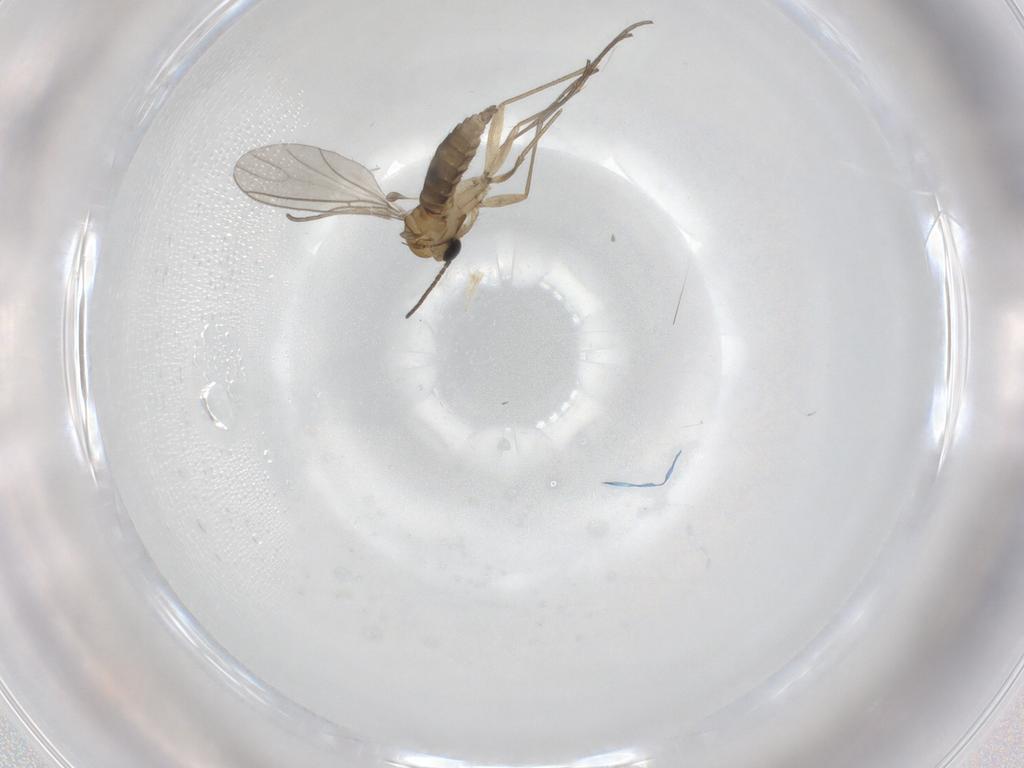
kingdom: Animalia
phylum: Arthropoda
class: Insecta
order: Diptera
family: Sciaridae
